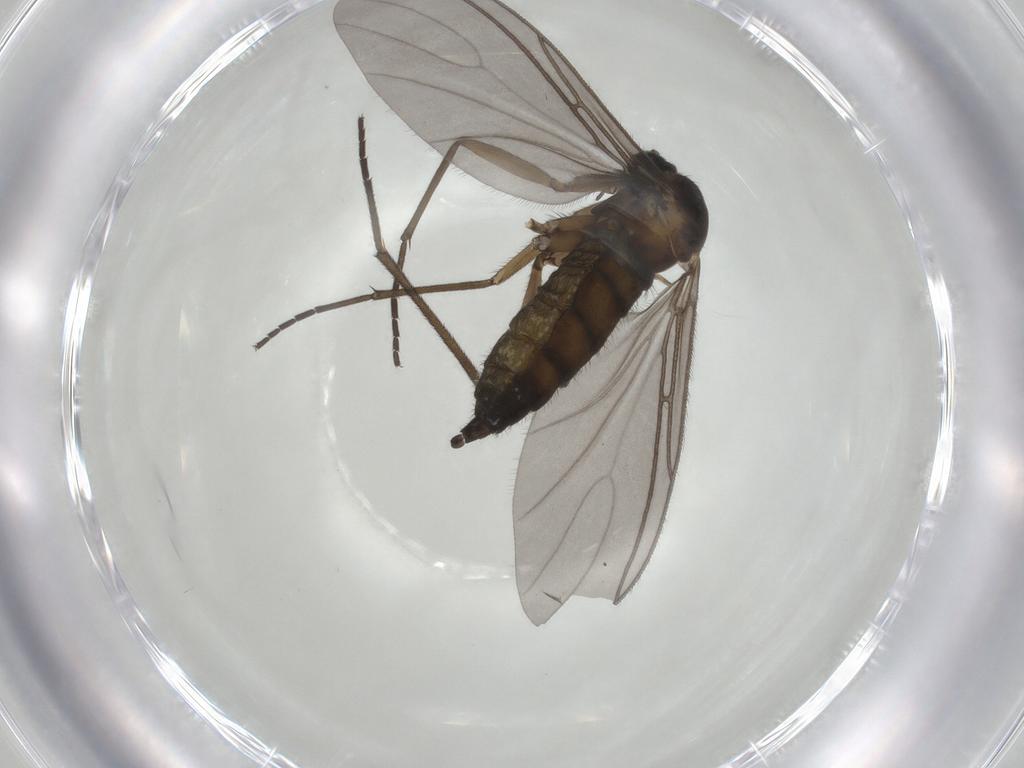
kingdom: Animalia
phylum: Arthropoda
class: Insecta
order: Diptera
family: Sciaridae
